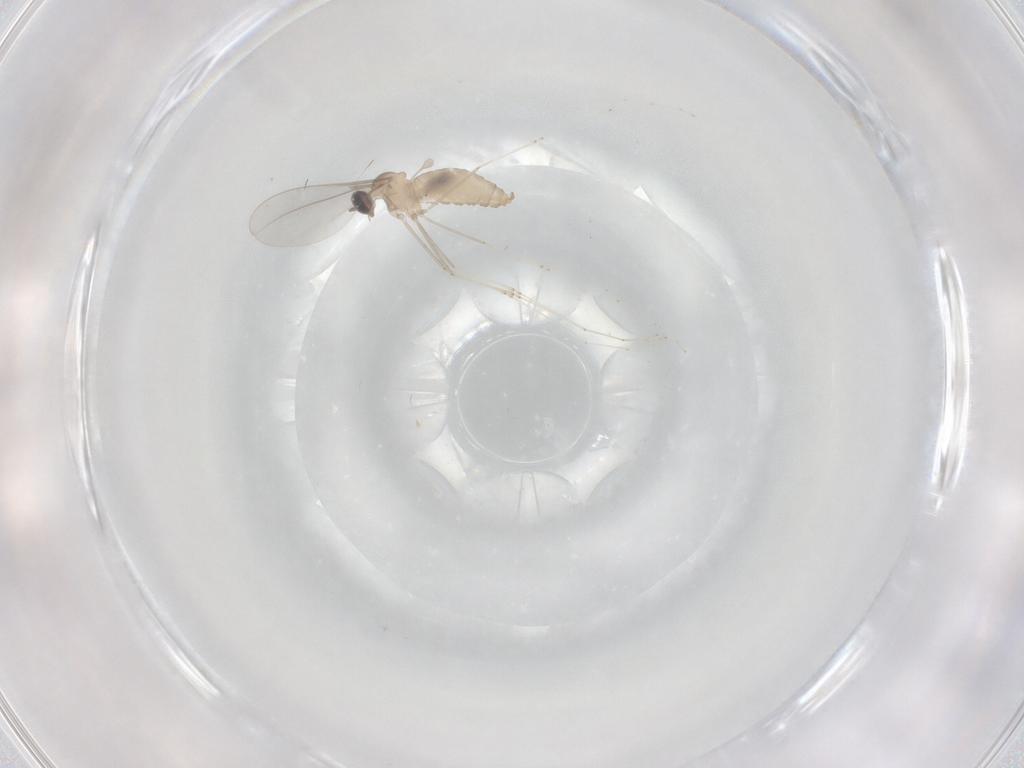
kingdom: Animalia
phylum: Arthropoda
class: Insecta
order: Diptera
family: Cecidomyiidae
